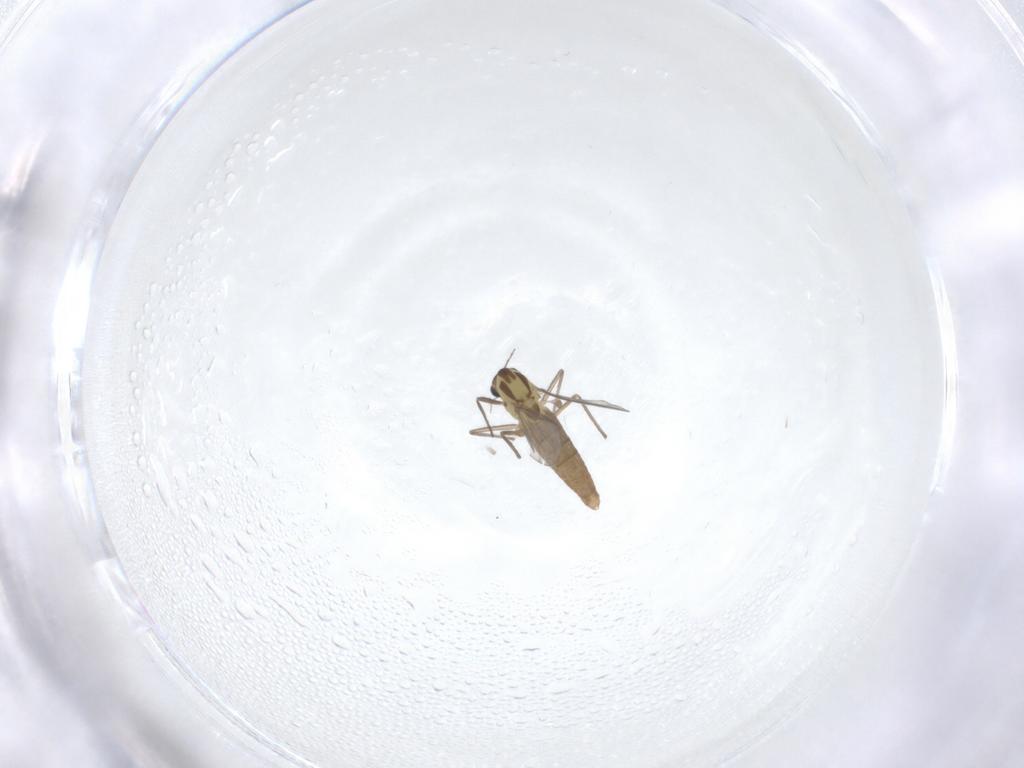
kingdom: Animalia
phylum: Arthropoda
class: Insecta
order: Diptera
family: Chironomidae
